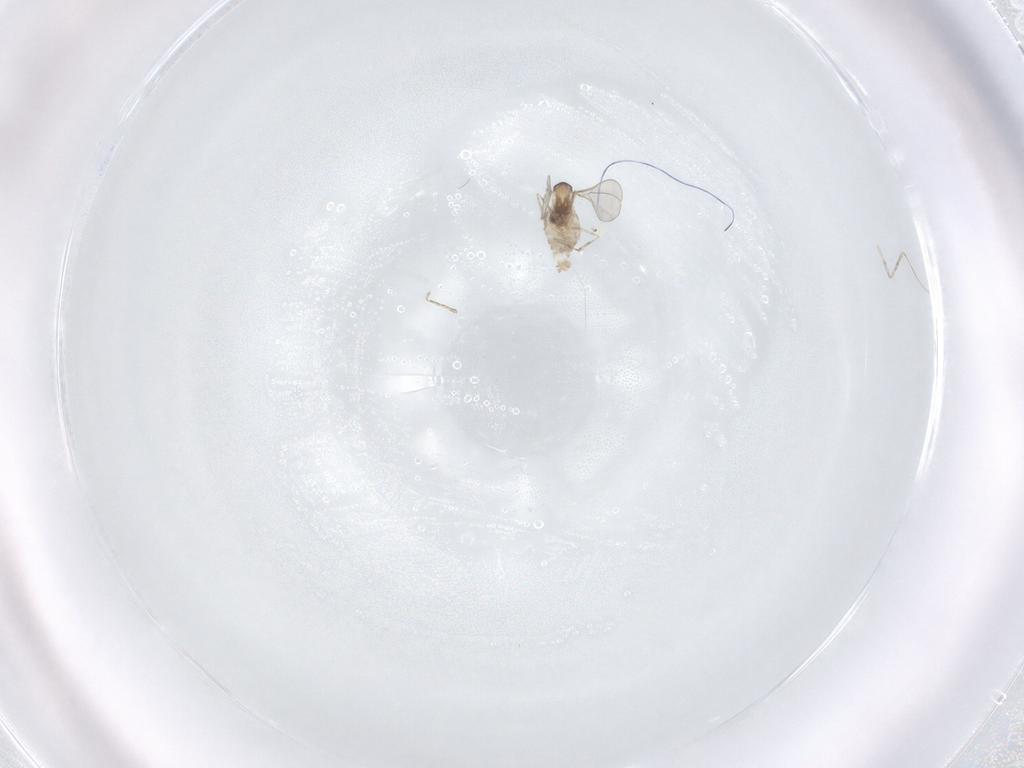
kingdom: Animalia
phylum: Arthropoda
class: Insecta
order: Diptera
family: Cecidomyiidae
